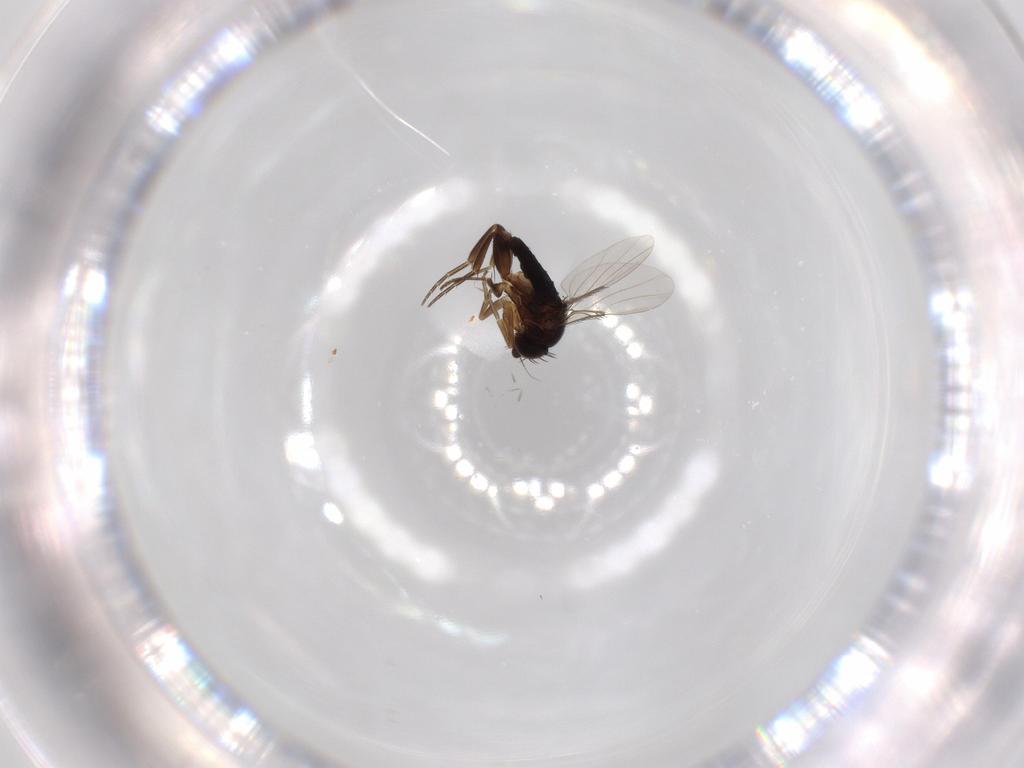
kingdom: Animalia
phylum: Arthropoda
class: Insecta
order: Diptera
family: Phoridae
